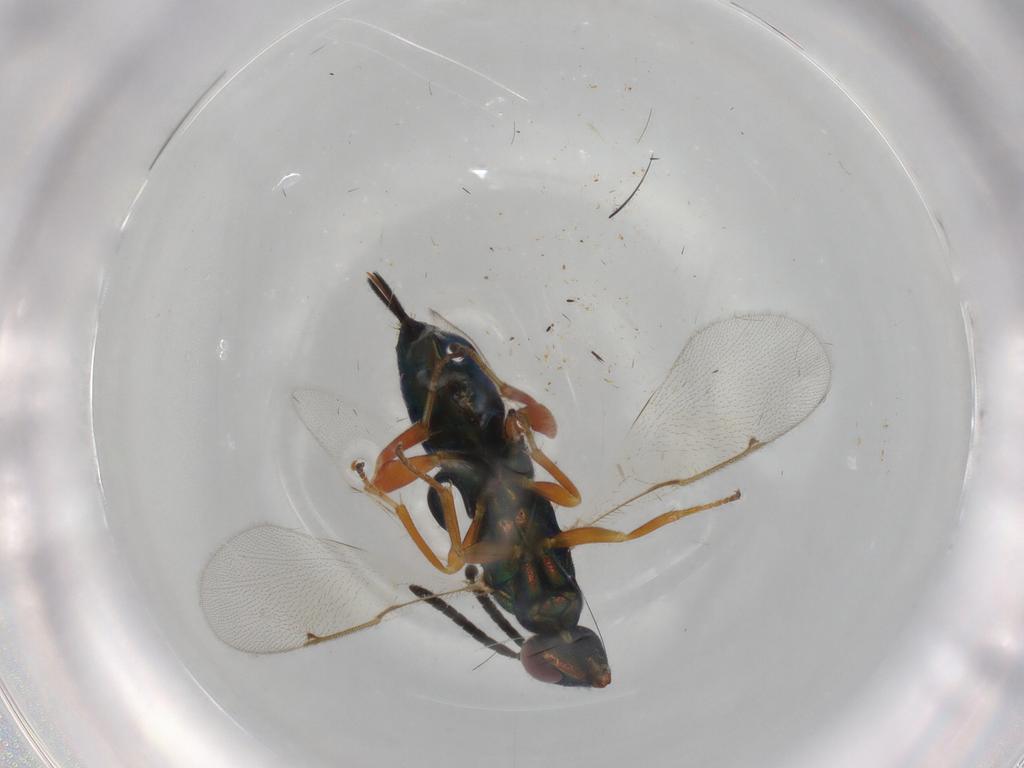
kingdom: Animalia
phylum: Arthropoda
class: Insecta
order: Hymenoptera
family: Torymidae
